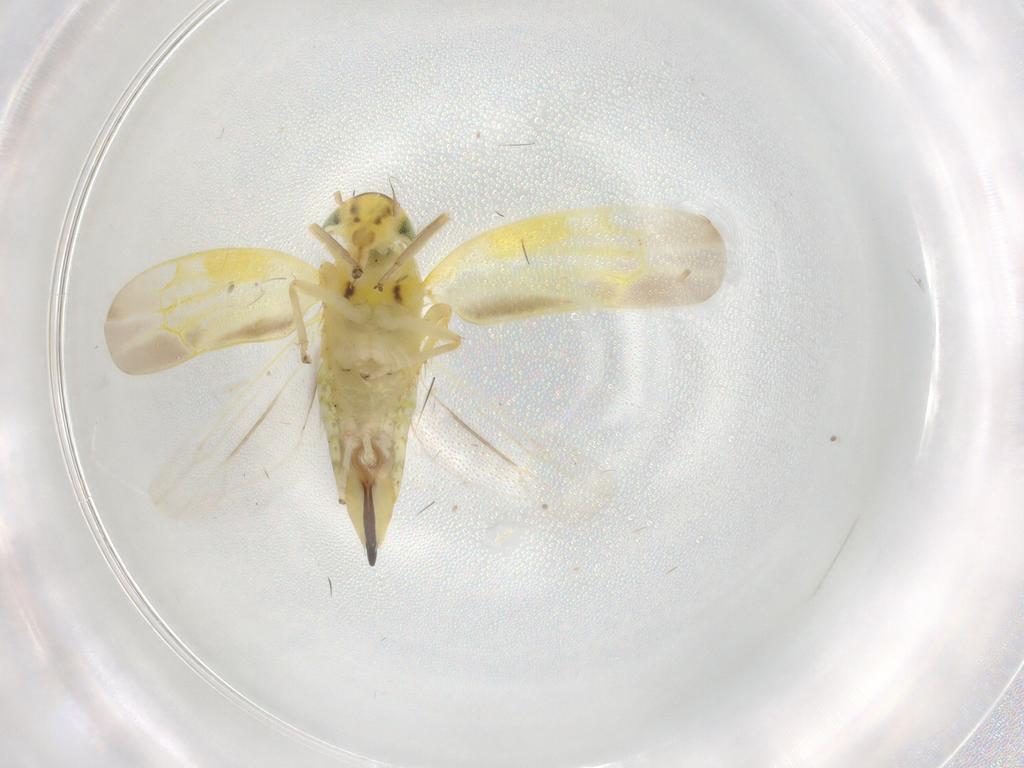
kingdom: Animalia
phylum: Arthropoda
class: Insecta
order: Hemiptera
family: Cicadellidae
